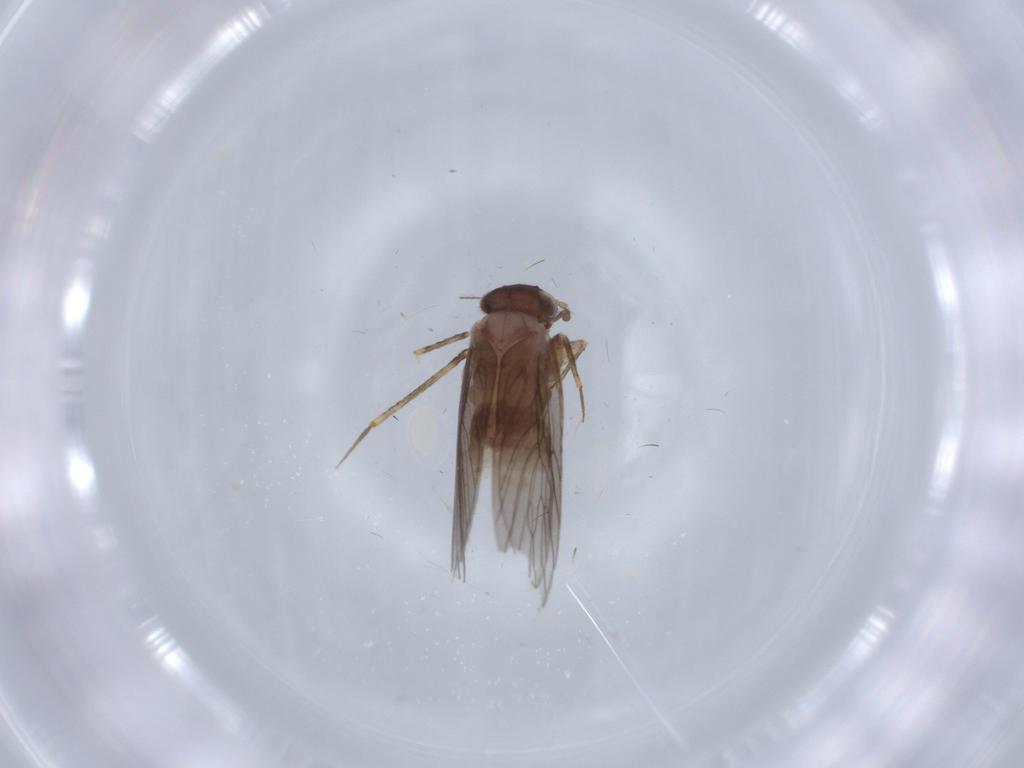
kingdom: Animalia
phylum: Arthropoda
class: Insecta
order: Psocodea
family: Lepidopsocidae
